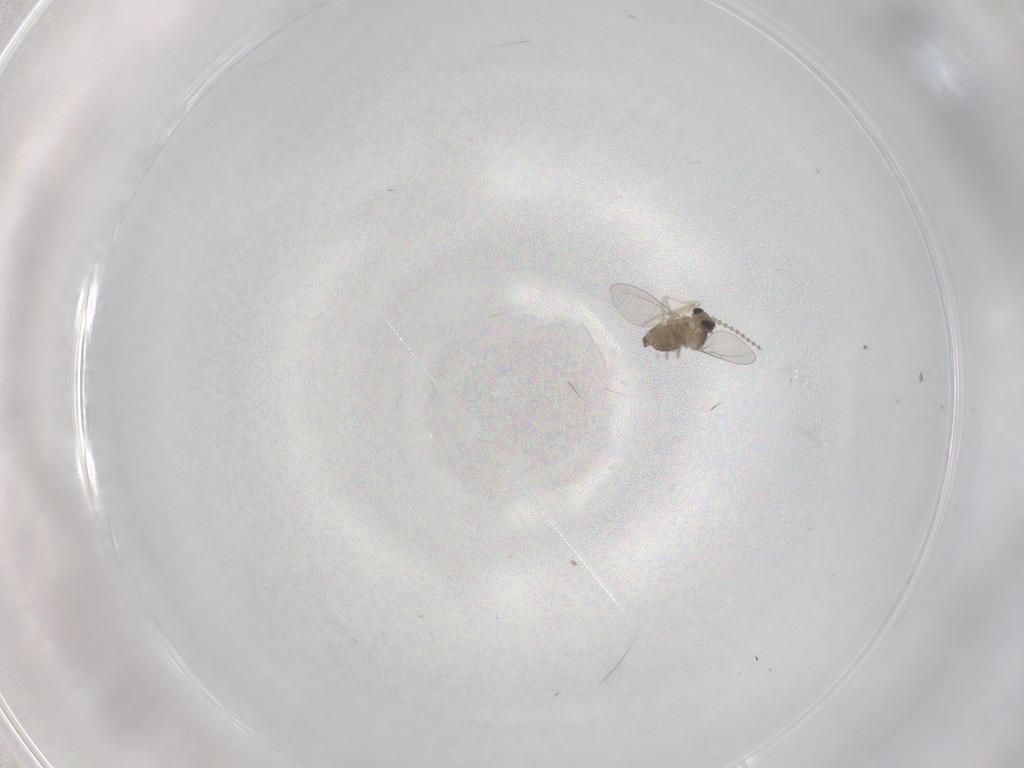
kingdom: Animalia
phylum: Arthropoda
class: Insecta
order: Diptera
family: Cecidomyiidae
